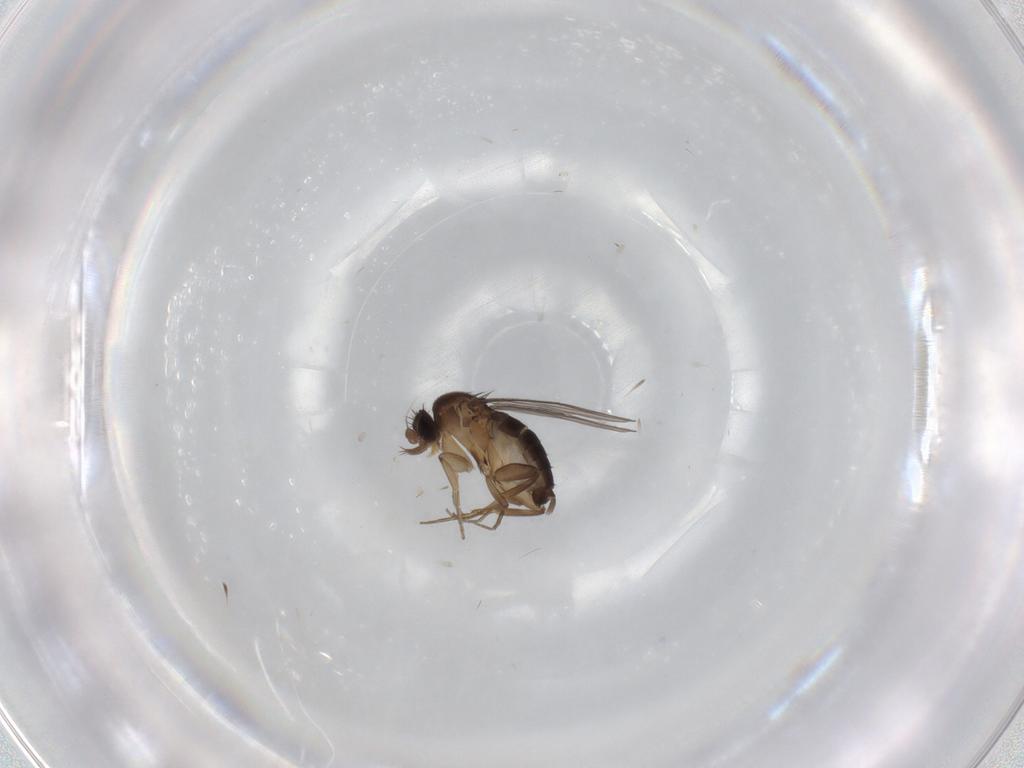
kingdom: Animalia
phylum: Arthropoda
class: Insecta
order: Diptera
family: Phoridae
